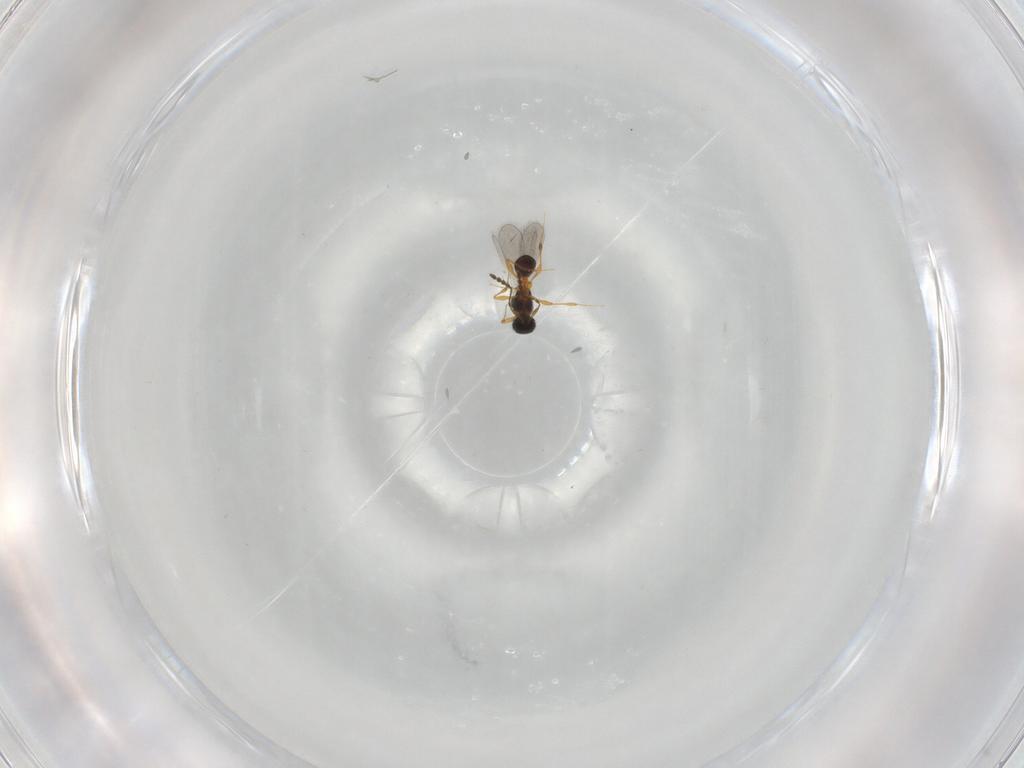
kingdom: Animalia
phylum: Arthropoda
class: Insecta
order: Hymenoptera
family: Platygastridae
